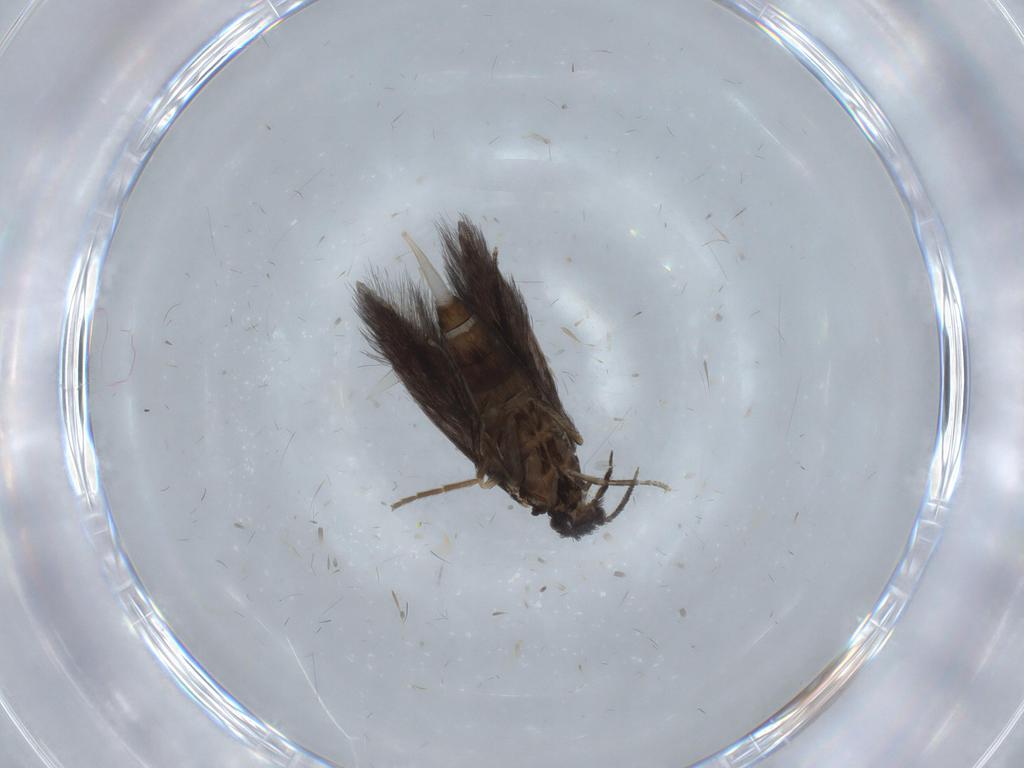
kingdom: Animalia
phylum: Arthropoda
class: Insecta
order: Trichoptera
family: Hydroptilidae
